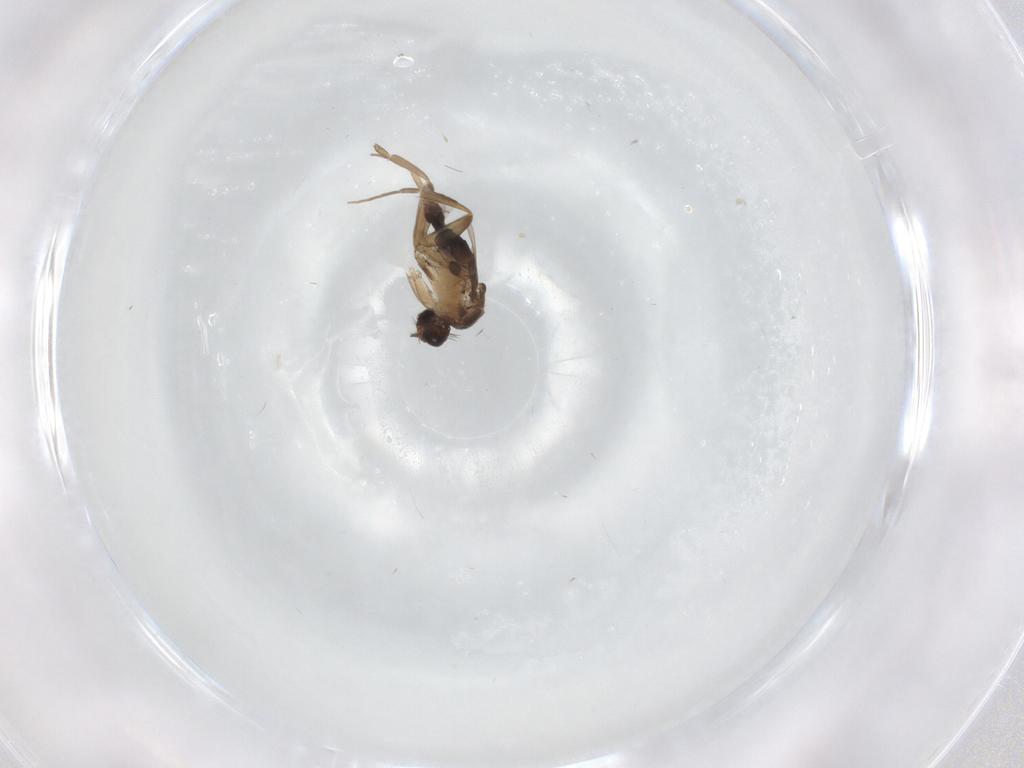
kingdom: Animalia
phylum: Arthropoda
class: Insecta
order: Diptera
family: Phoridae
